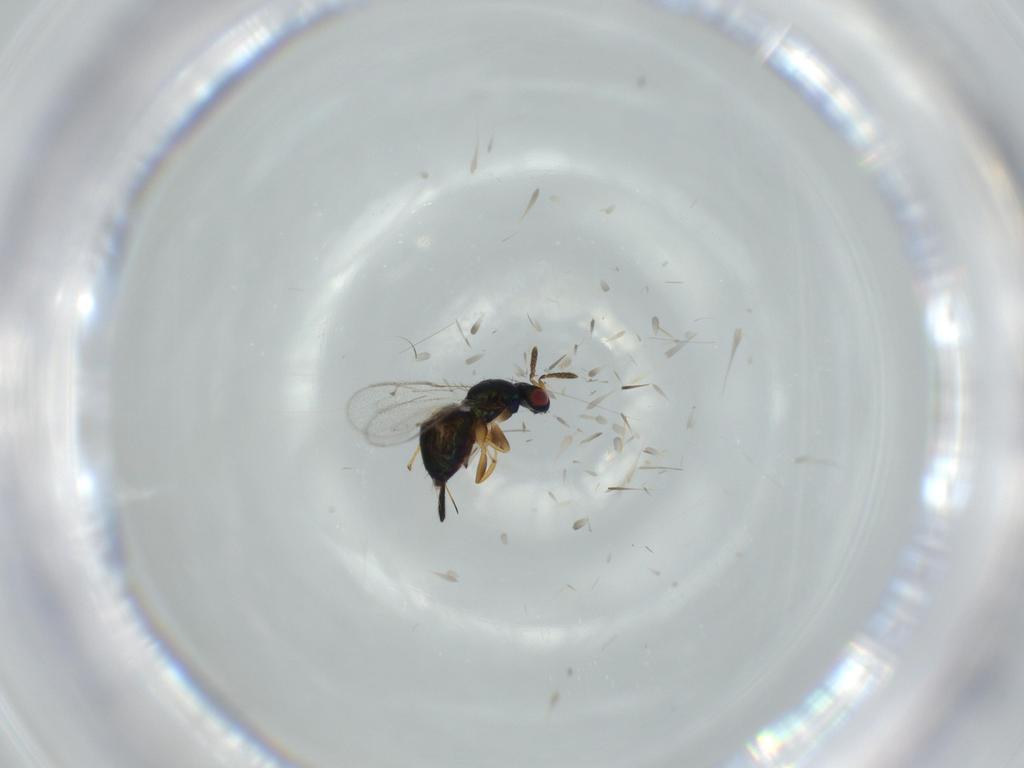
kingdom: Animalia
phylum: Arthropoda
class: Insecta
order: Hymenoptera
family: Torymidae
